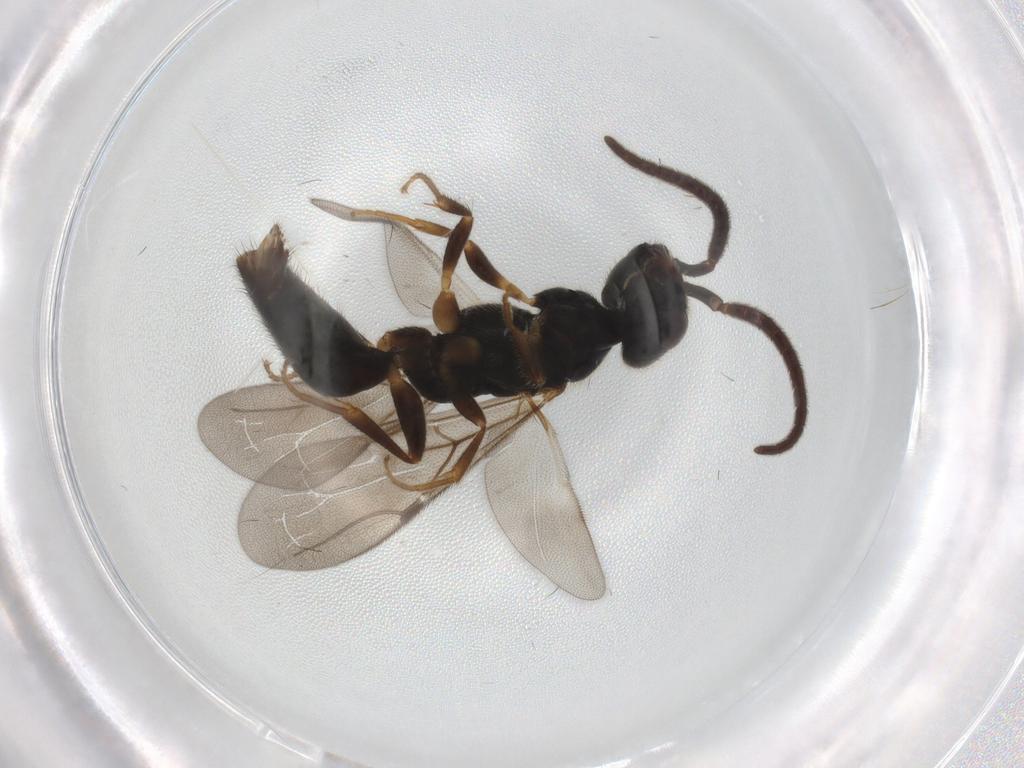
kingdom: Animalia
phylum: Arthropoda
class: Insecta
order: Hymenoptera
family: Bethylidae
